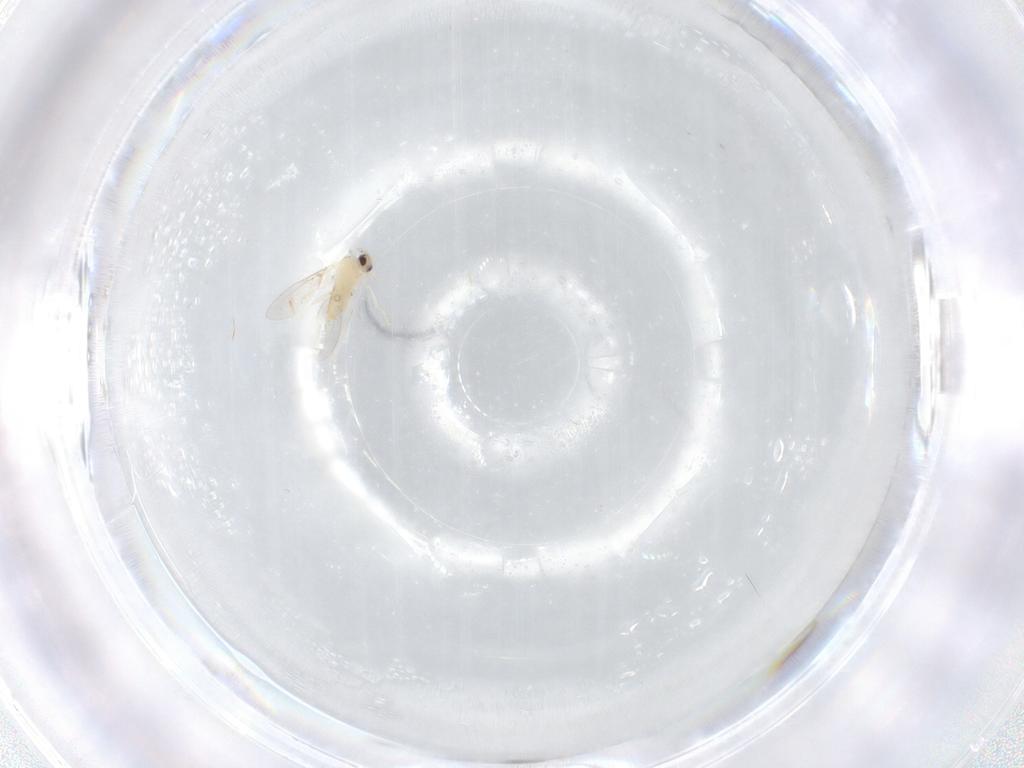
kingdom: Animalia
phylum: Arthropoda
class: Insecta
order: Diptera
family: Cecidomyiidae
